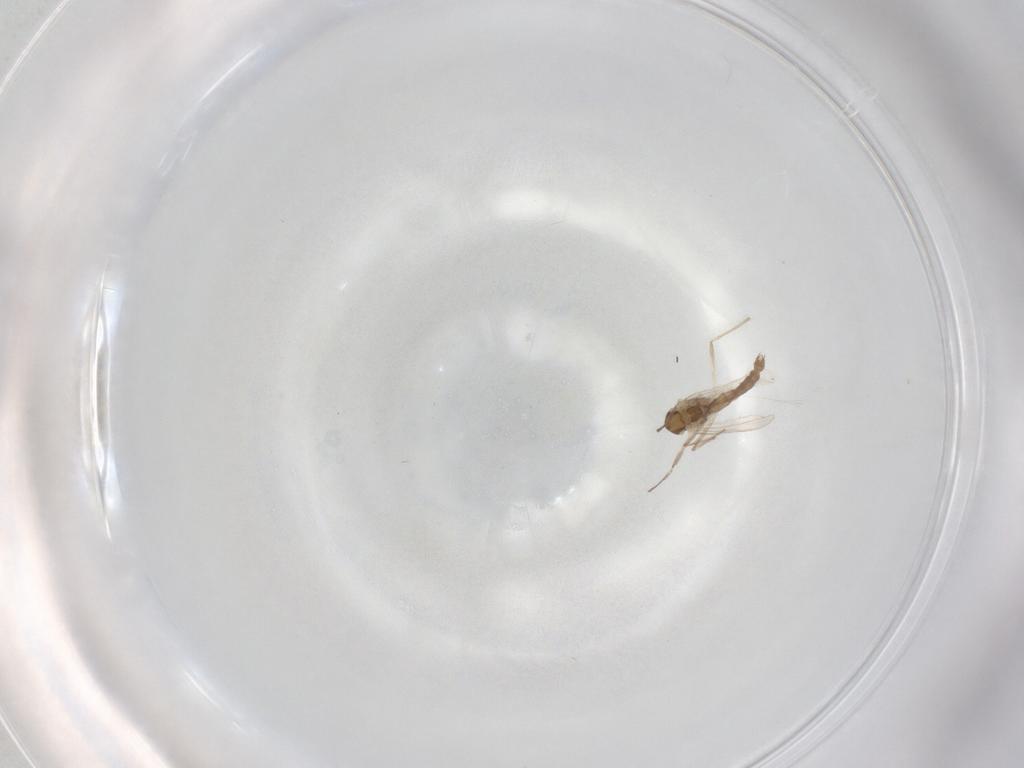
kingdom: Animalia
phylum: Arthropoda
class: Insecta
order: Diptera
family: Chironomidae
